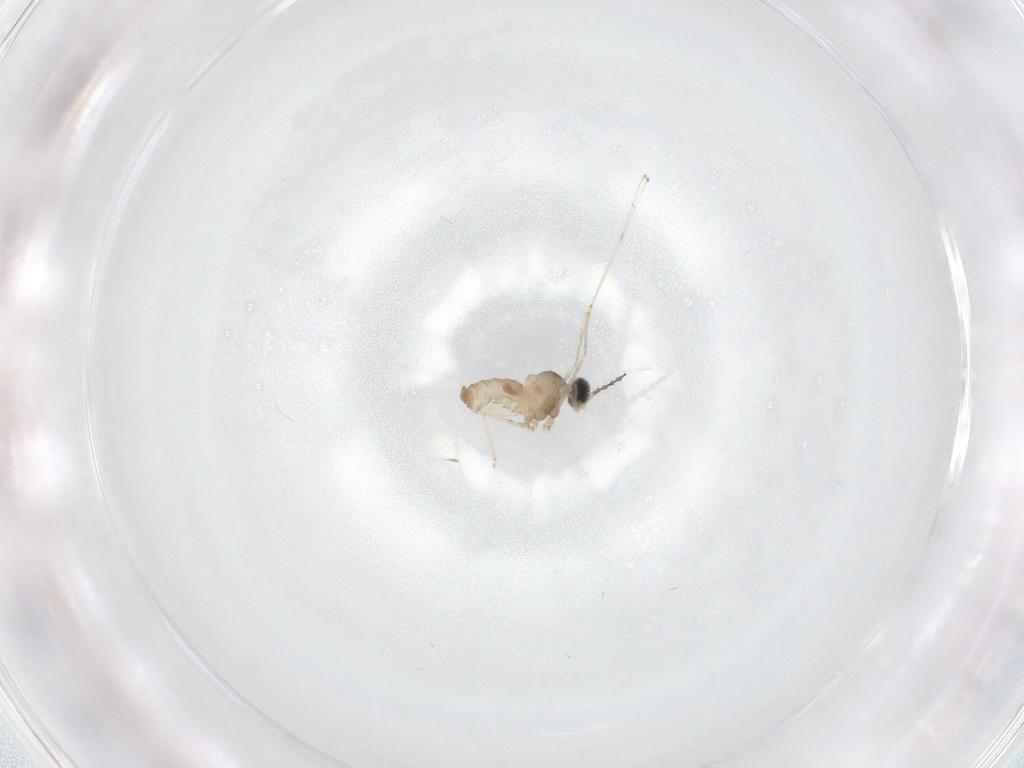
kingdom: Animalia
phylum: Arthropoda
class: Insecta
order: Diptera
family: Cecidomyiidae
